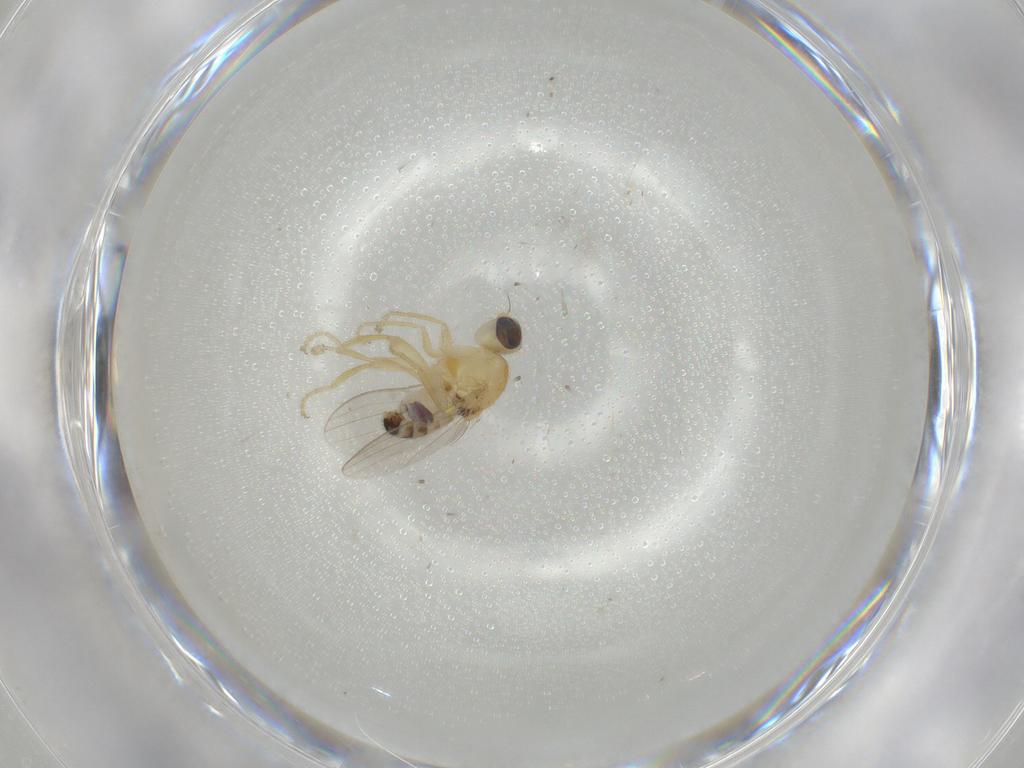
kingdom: Animalia
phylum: Arthropoda
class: Insecta
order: Diptera
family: Chyromyidae
